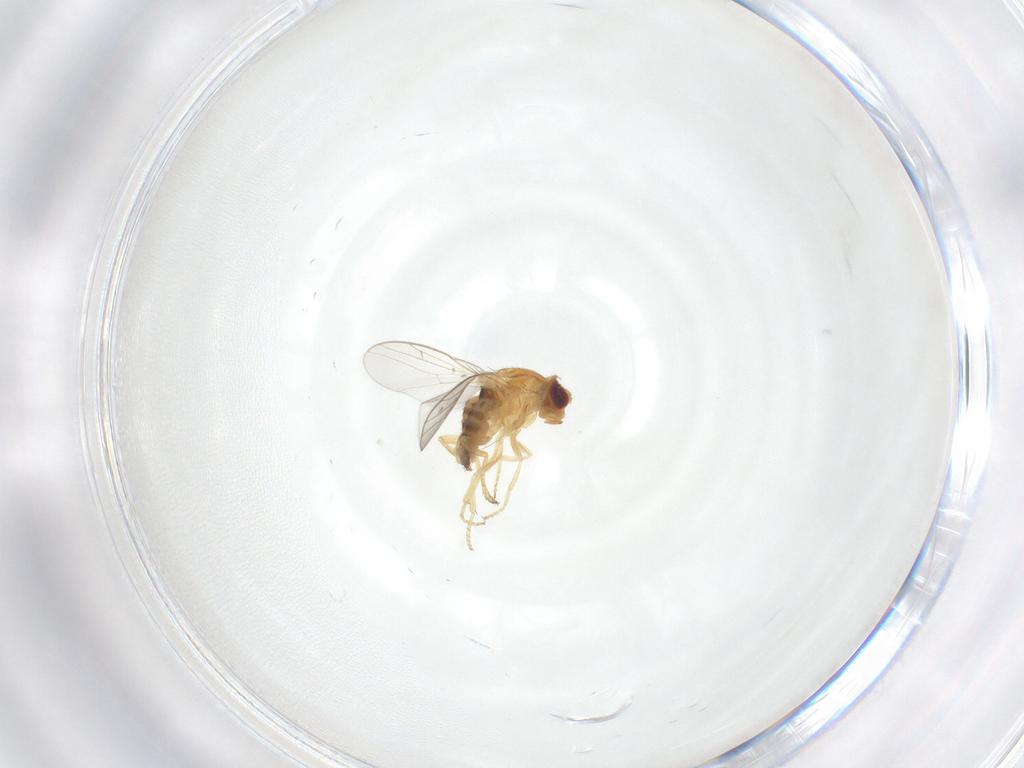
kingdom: Animalia
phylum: Arthropoda
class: Insecta
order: Diptera
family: Chloropidae
